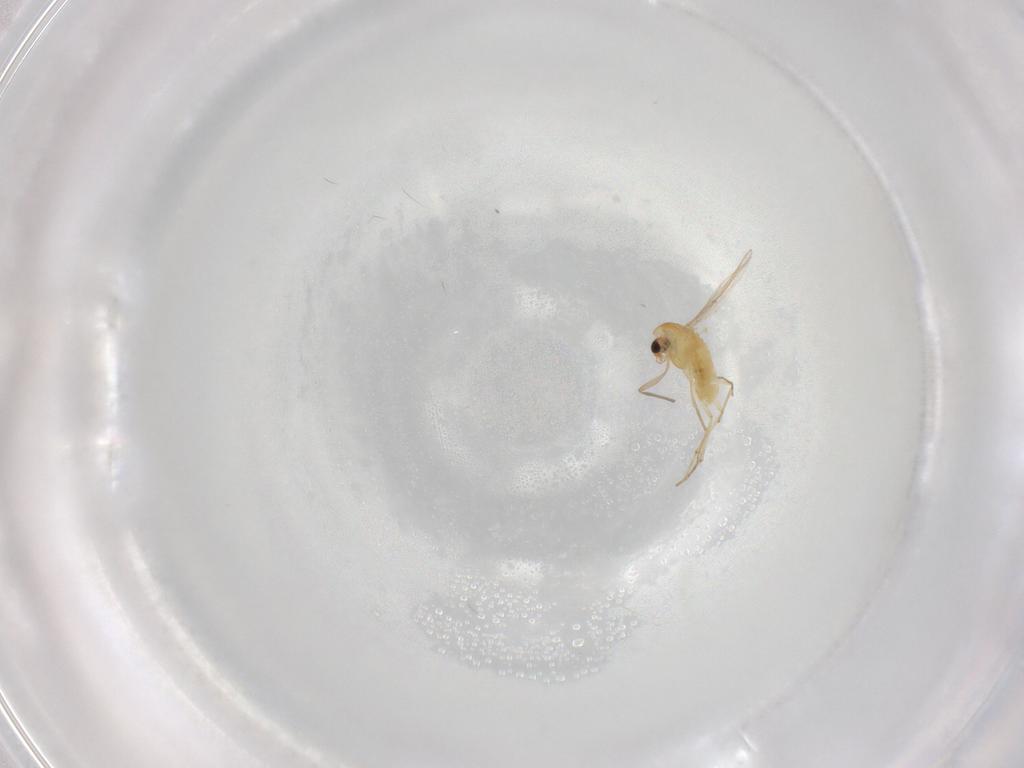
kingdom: Animalia
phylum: Arthropoda
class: Insecta
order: Diptera
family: Chironomidae
